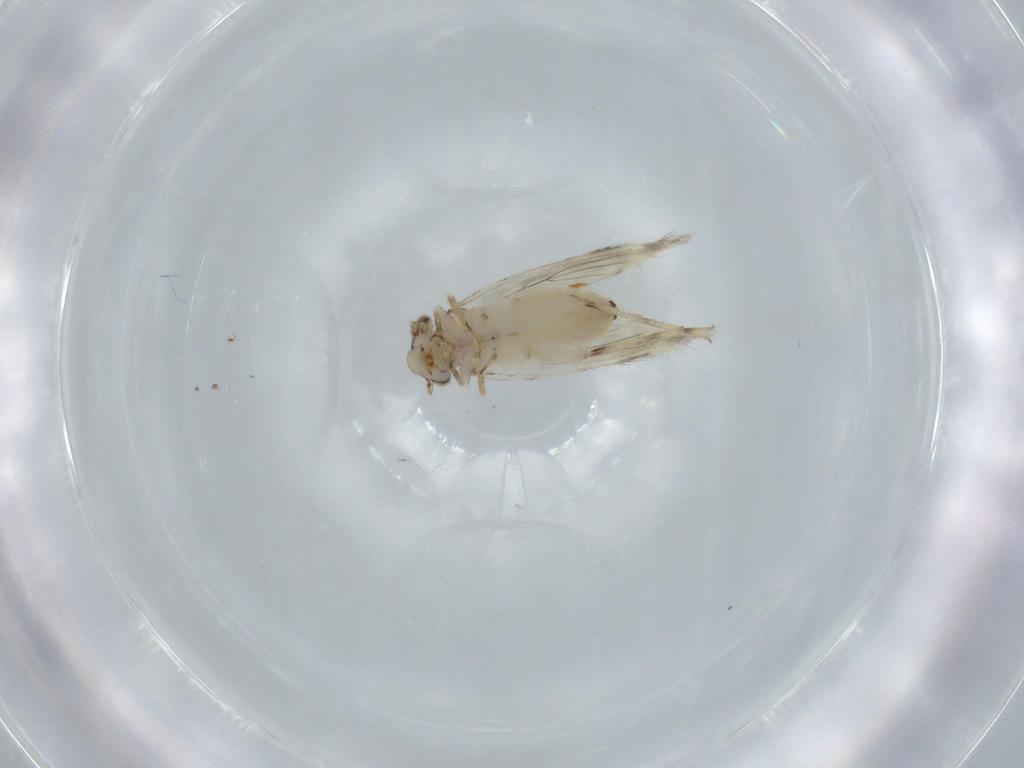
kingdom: Animalia
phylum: Arthropoda
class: Insecta
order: Psocodea
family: Lepidopsocidae
